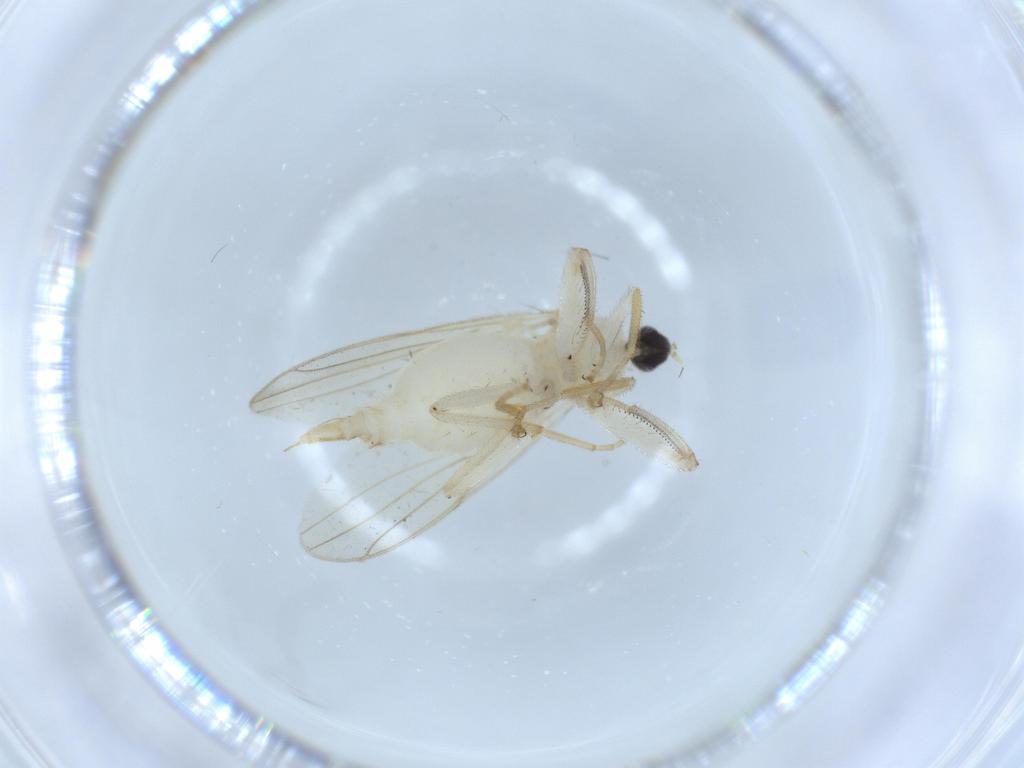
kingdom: Animalia
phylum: Arthropoda
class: Insecta
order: Diptera
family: Hybotidae
